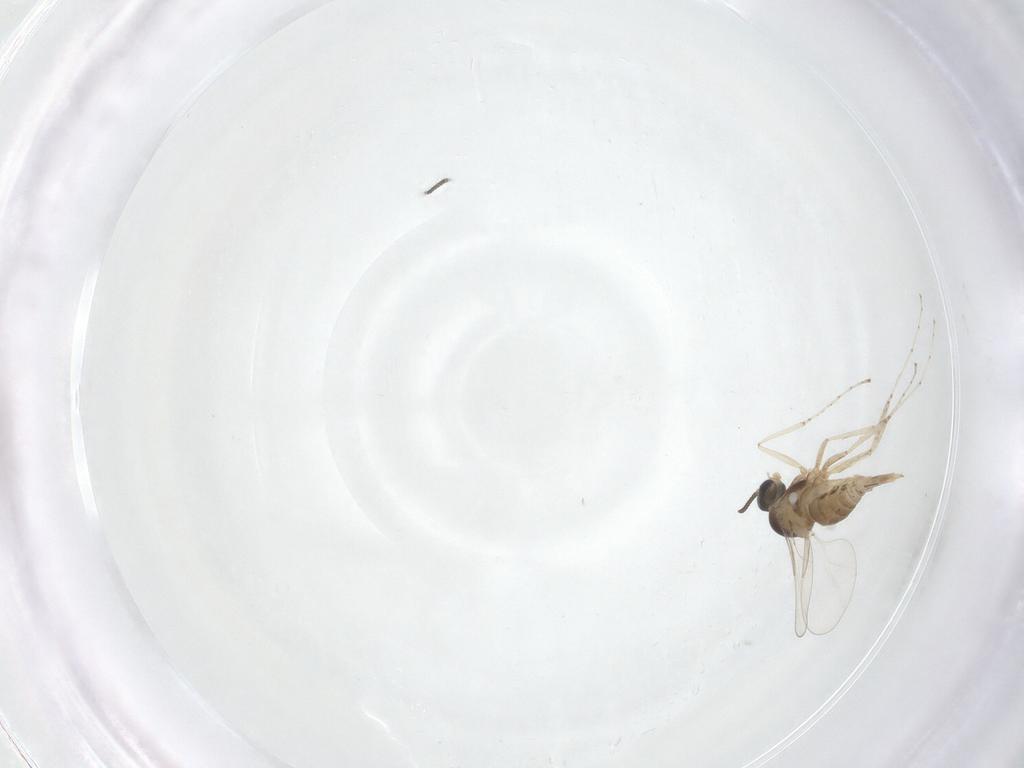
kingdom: Animalia
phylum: Arthropoda
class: Insecta
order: Diptera
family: Cecidomyiidae
